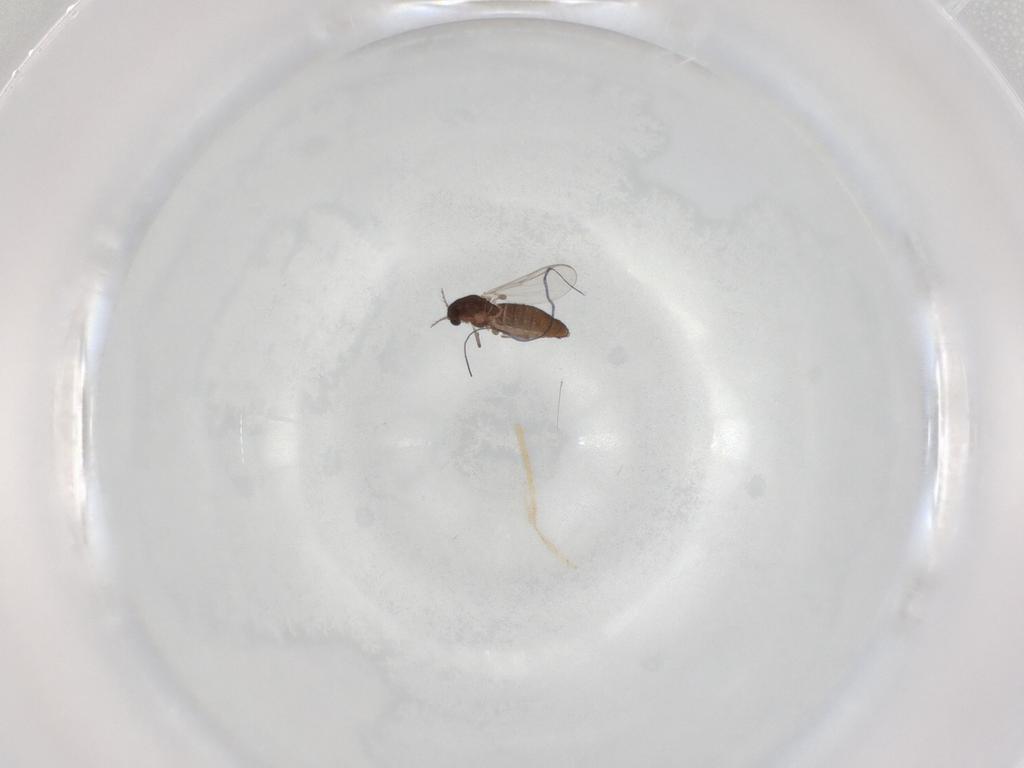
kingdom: Animalia
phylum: Arthropoda
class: Insecta
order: Diptera
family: Chironomidae
